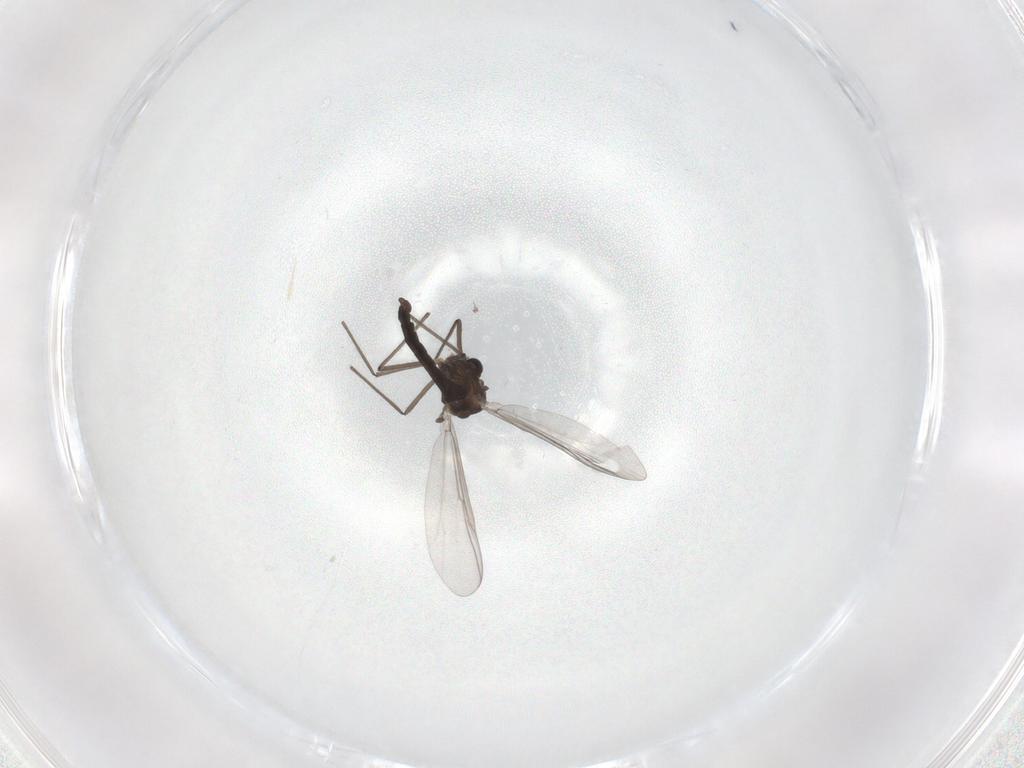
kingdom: Animalia
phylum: Arthropoda
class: Insecta
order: Diptera
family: Chironomidae
